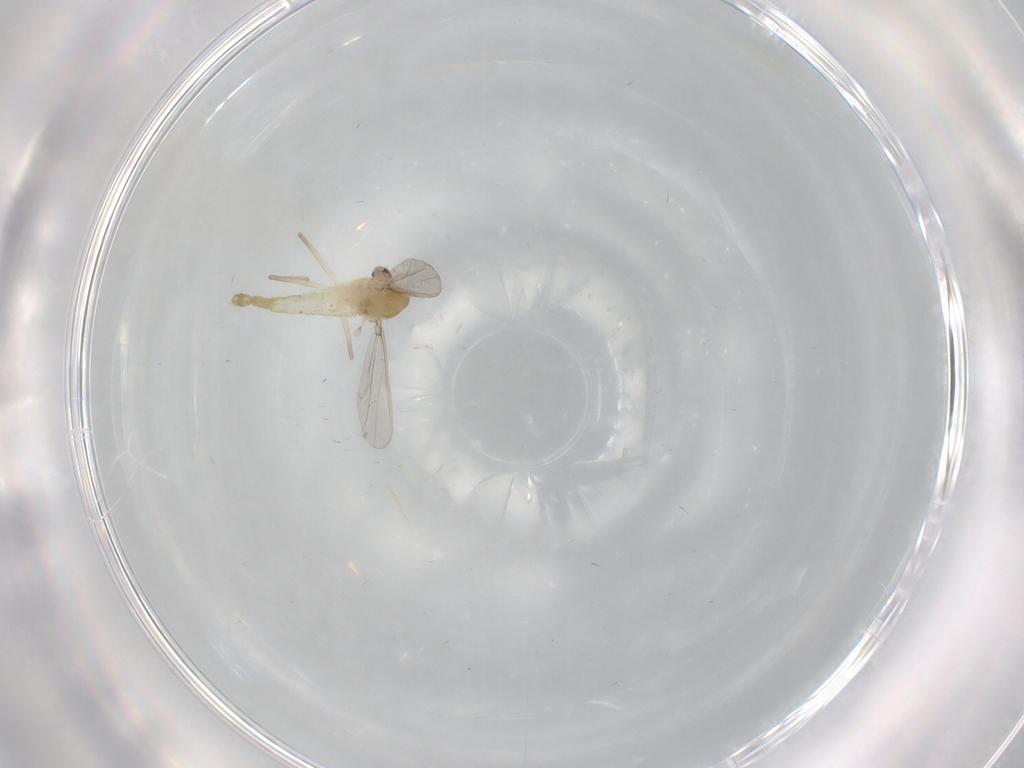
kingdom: Animalia
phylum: Arthropoda
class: Insecta
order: Diptera
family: Chironomidae
